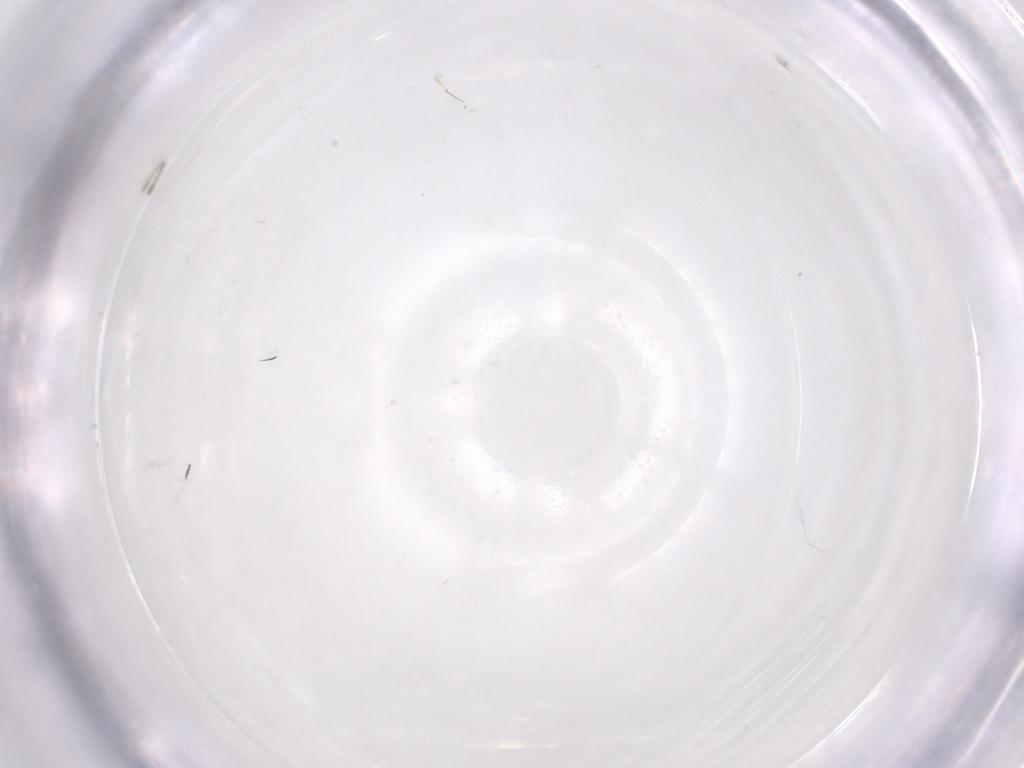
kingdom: Animalia
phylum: Arthropoda
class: Insecta
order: Hymenoptera
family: Diapriidae
